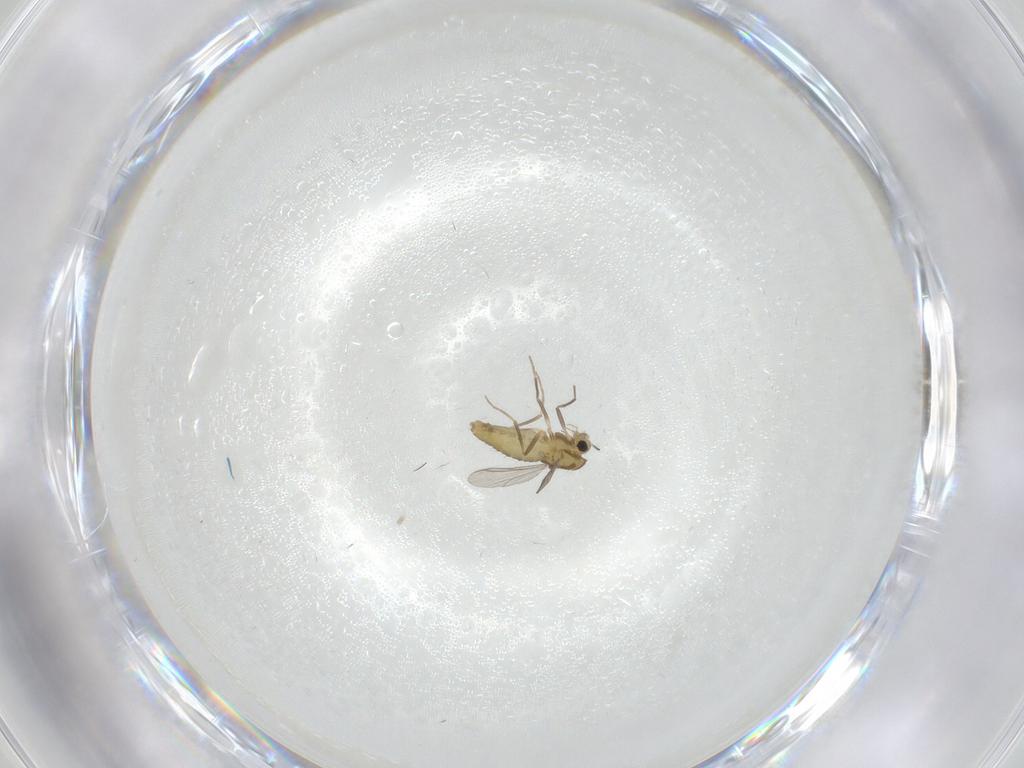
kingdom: Animalia
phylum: Arthropoda
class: Insecta
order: Diptera
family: Chironomidae
